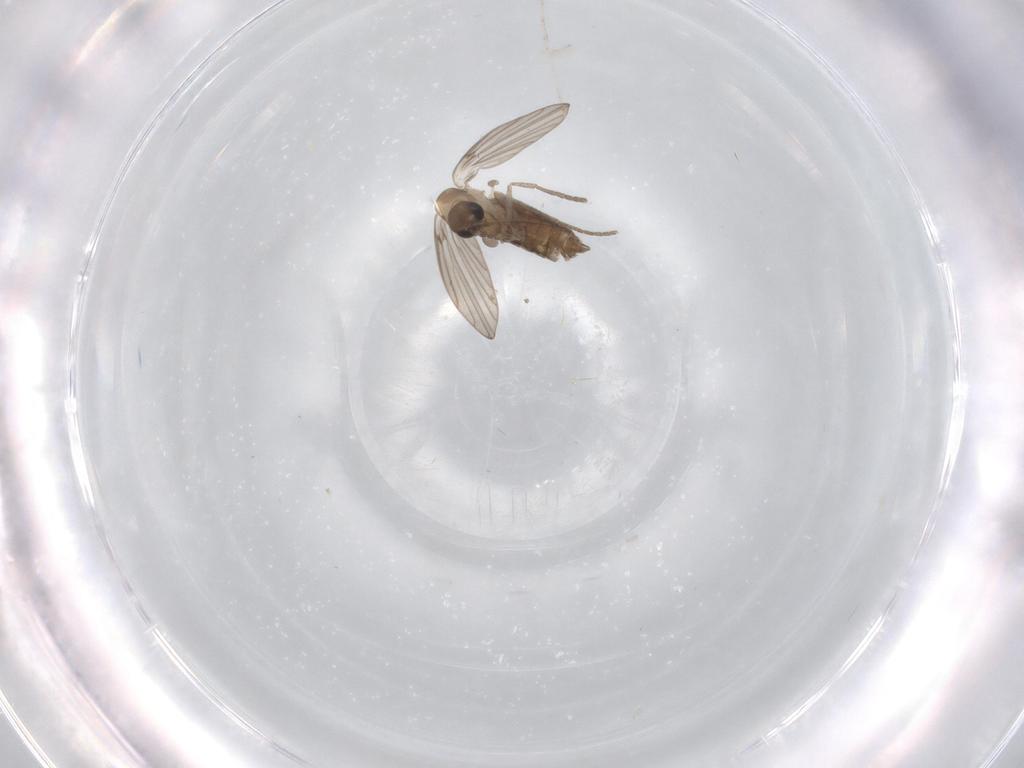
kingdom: Animalia
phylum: Arthropoda
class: Insecta
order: Diptera
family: Psychodidae
